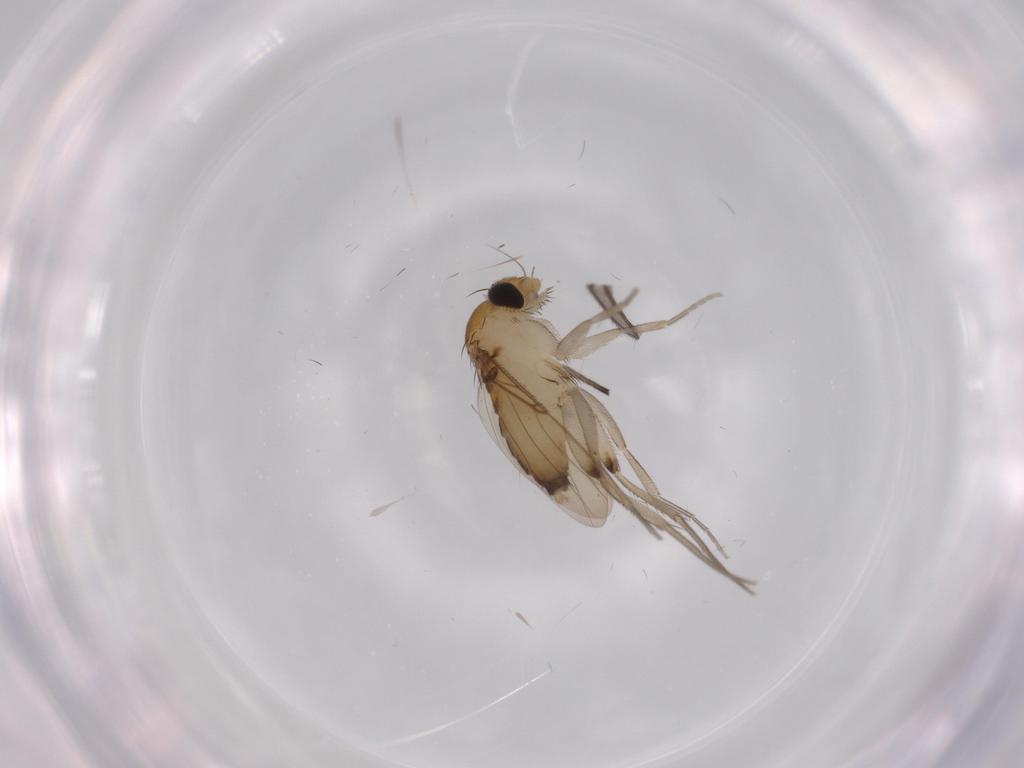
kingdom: Animalia
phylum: Arthropoda
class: Insecta
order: Diptera
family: Phoridae
